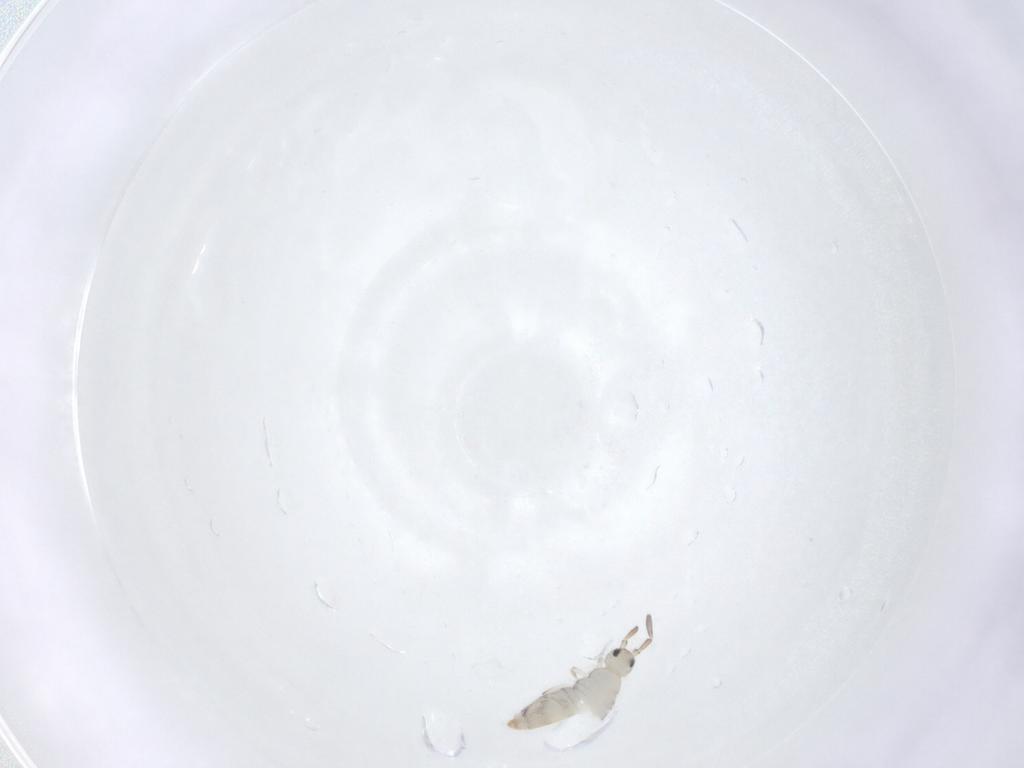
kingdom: Animalia
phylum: Arthropoda
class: Collembola
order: Entomobryomorpha
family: Entomobryidae
